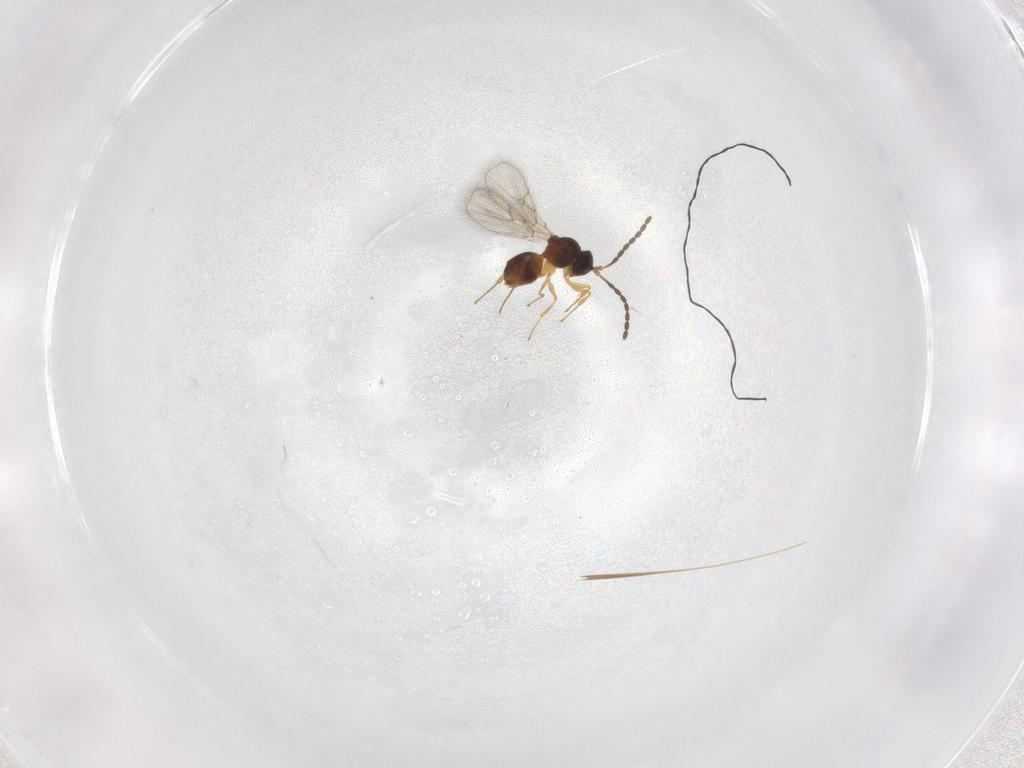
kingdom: Animalia
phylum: Arthropoda
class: Insecta
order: Hymenoptera
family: Figitidae
